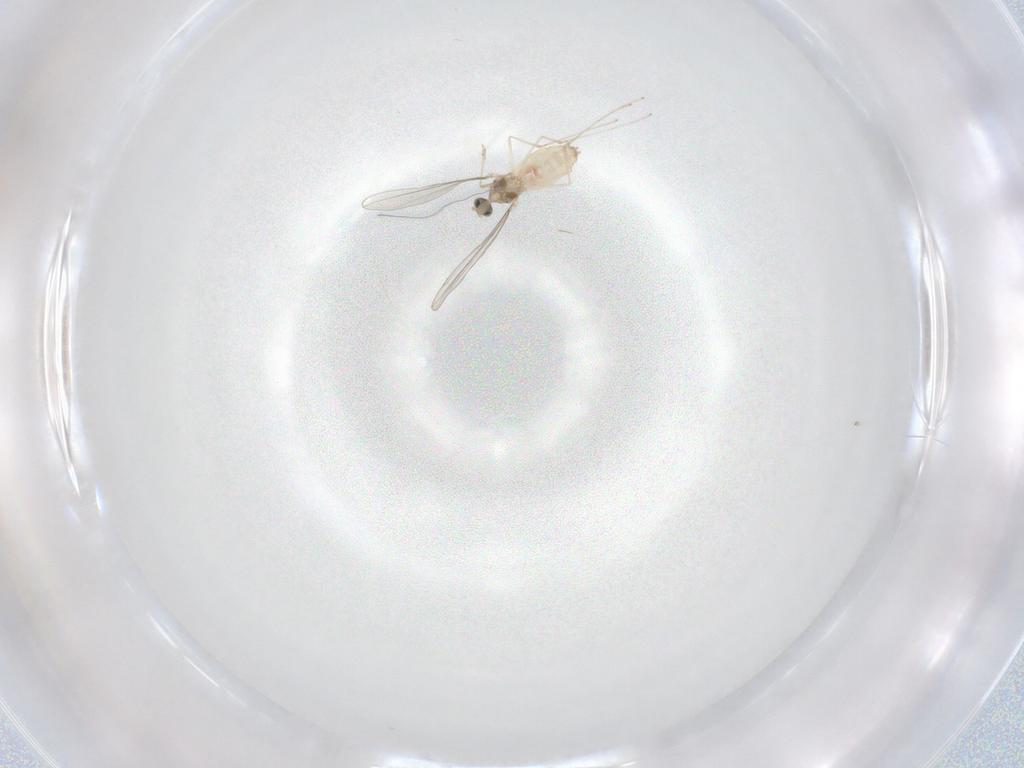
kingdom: Animalia
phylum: Arthropoda
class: Insecta
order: Diptera
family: Cecidomyiidae
